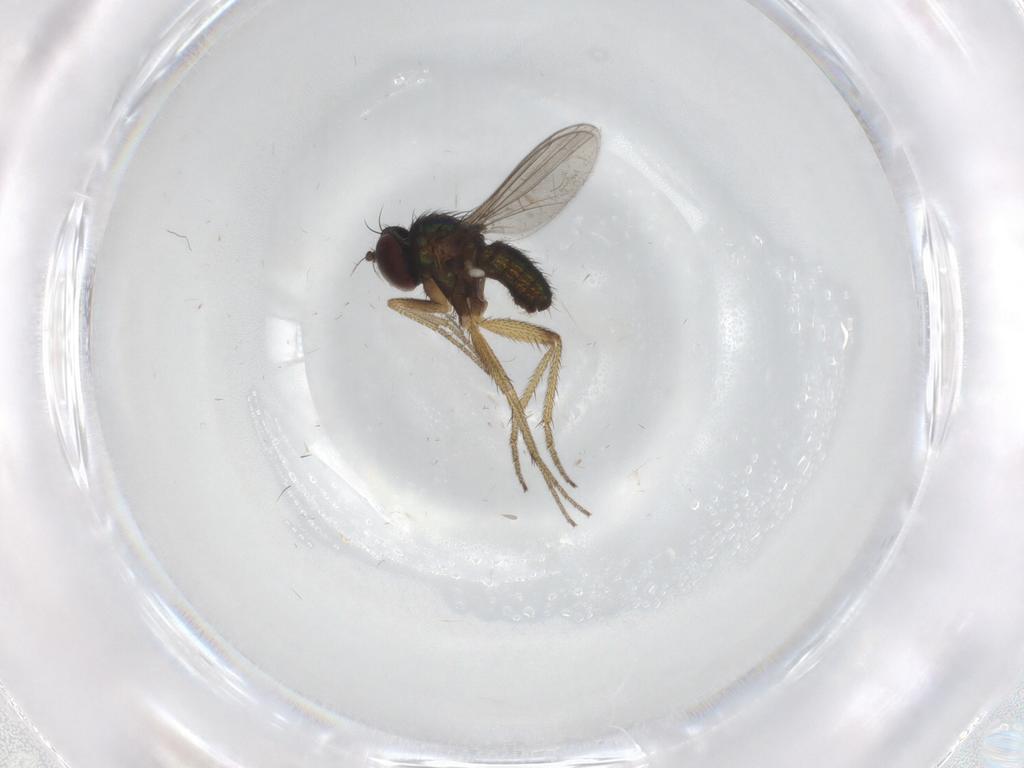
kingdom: Animalia
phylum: Arthropoda
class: Insecta
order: Diptera
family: Dolichopodidae
